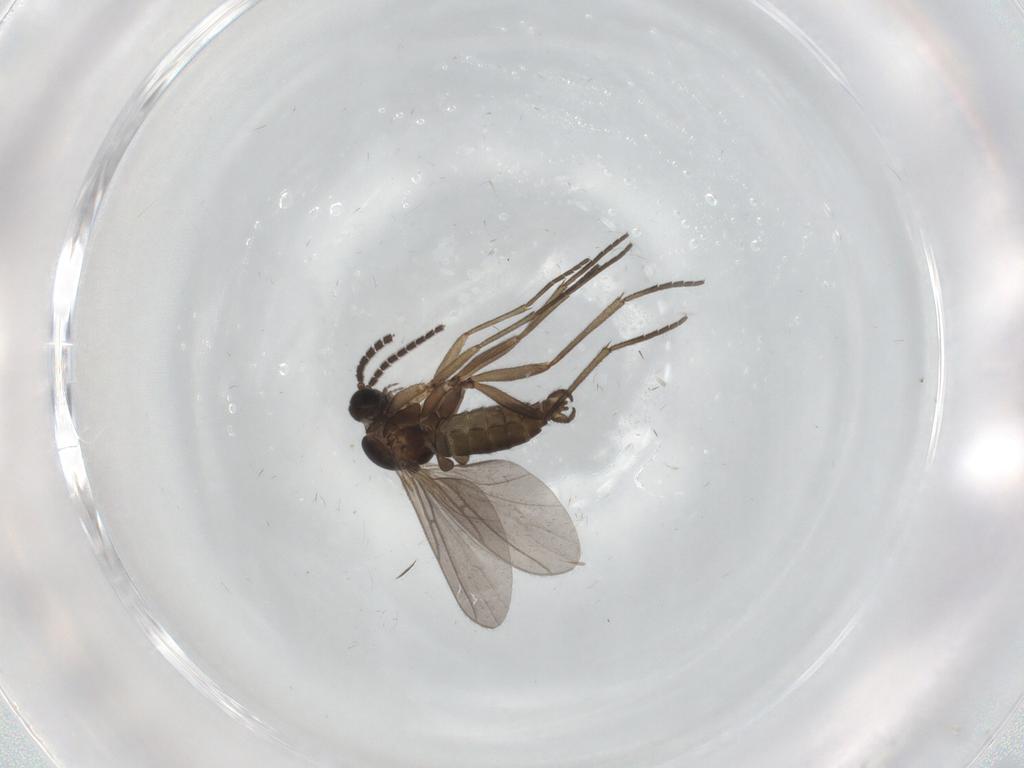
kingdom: Animalia
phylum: Arthropoda
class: Insecta
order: Diptera
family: Sciaridae
